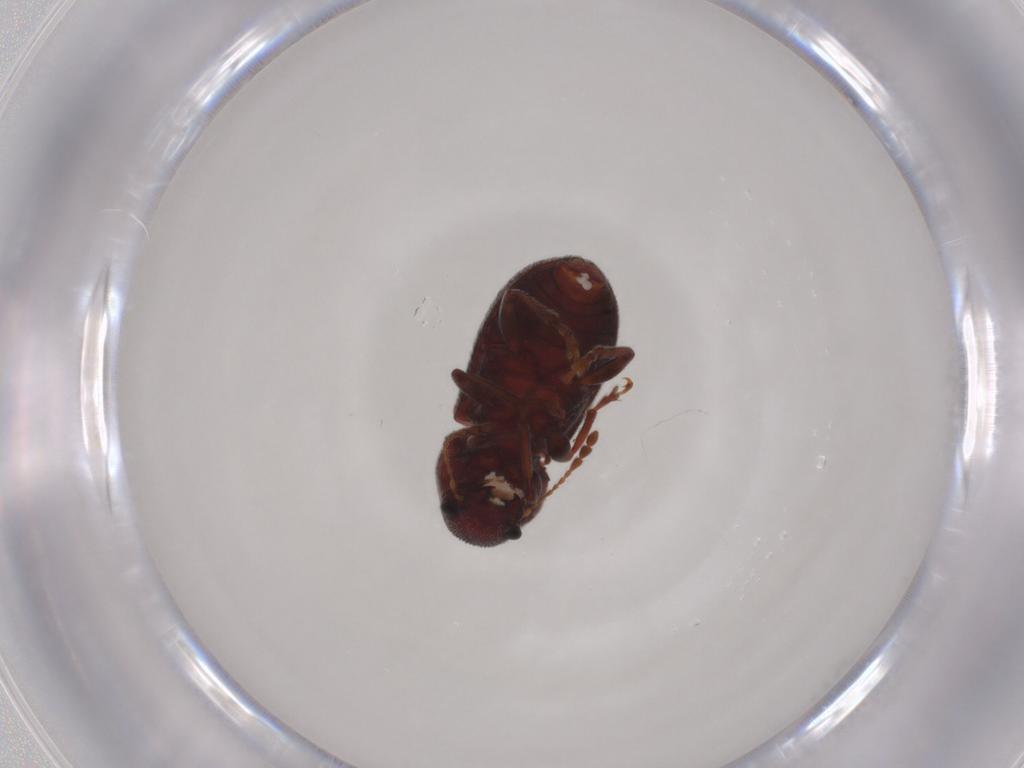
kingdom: Animalia
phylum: Arthropoda
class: Insecta
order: Coleoptera
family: Anthribidae
